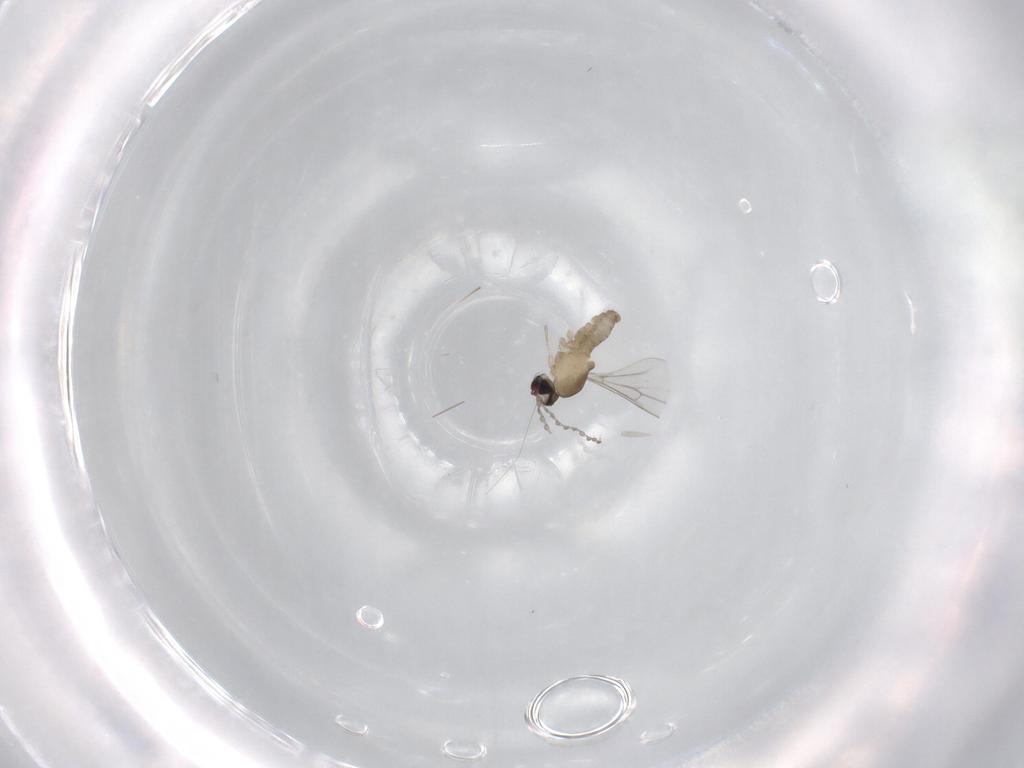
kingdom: Animalia
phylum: Arthropoda
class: Insecta
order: Diptera
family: Cecidomyiidae
